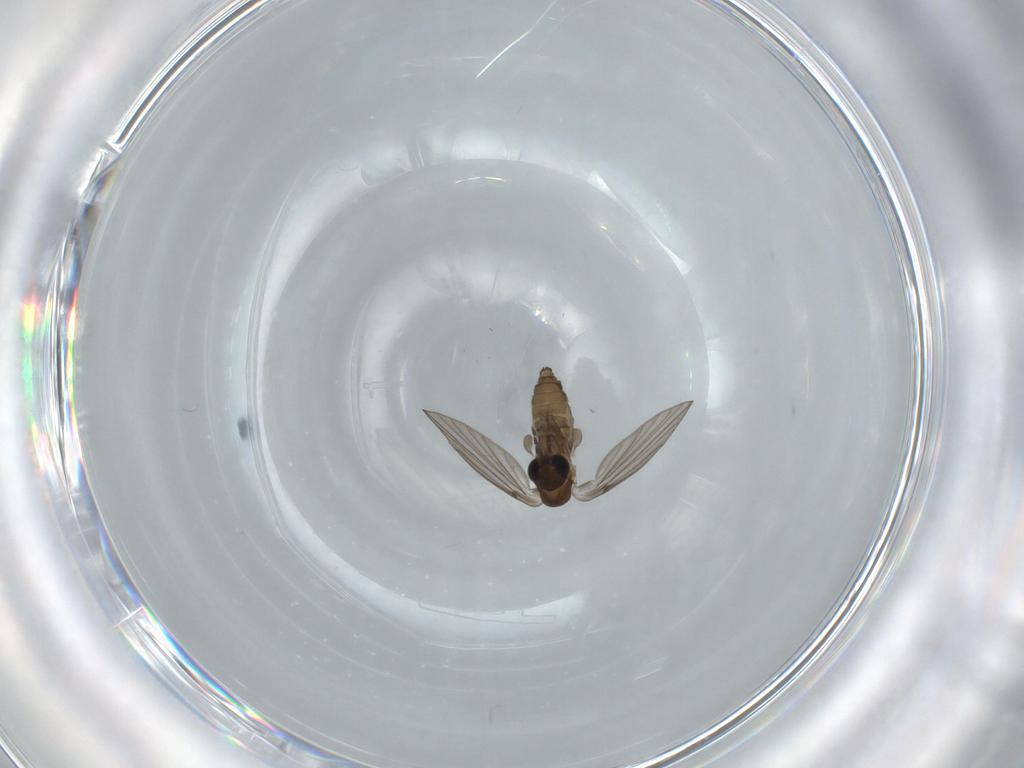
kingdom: Animalia
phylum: Arthropoda
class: Insecta
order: Diptera
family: Psychodidae
